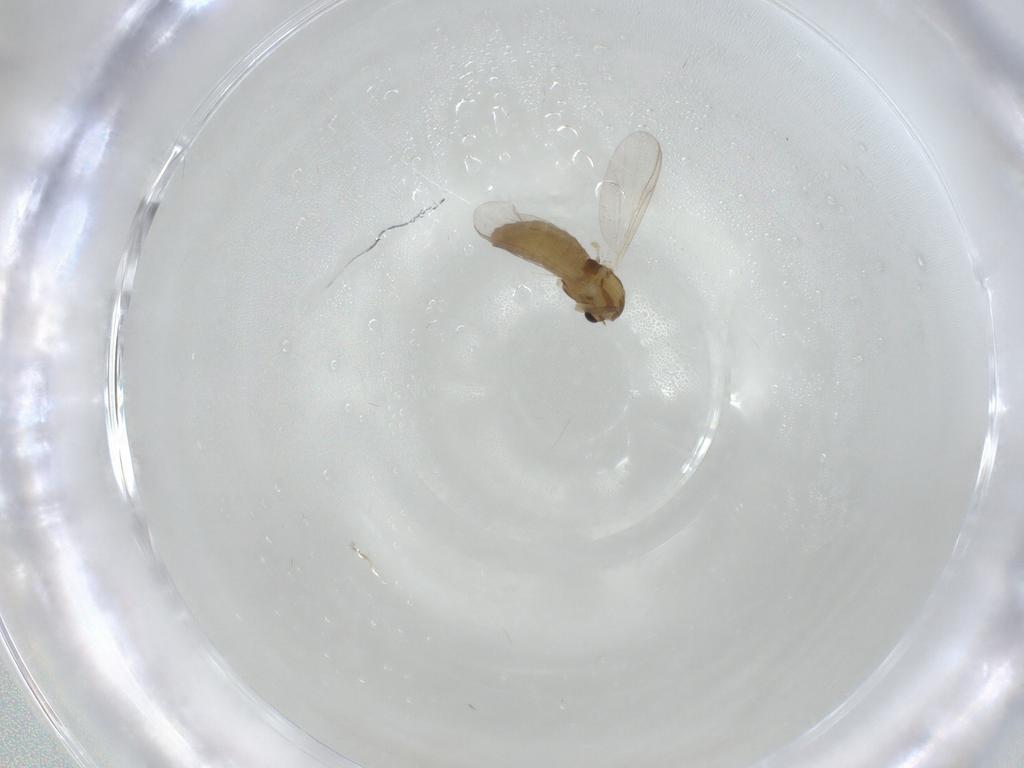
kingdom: Animalia
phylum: Arthropoda
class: Insecta
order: Diptera
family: Chironomidae
